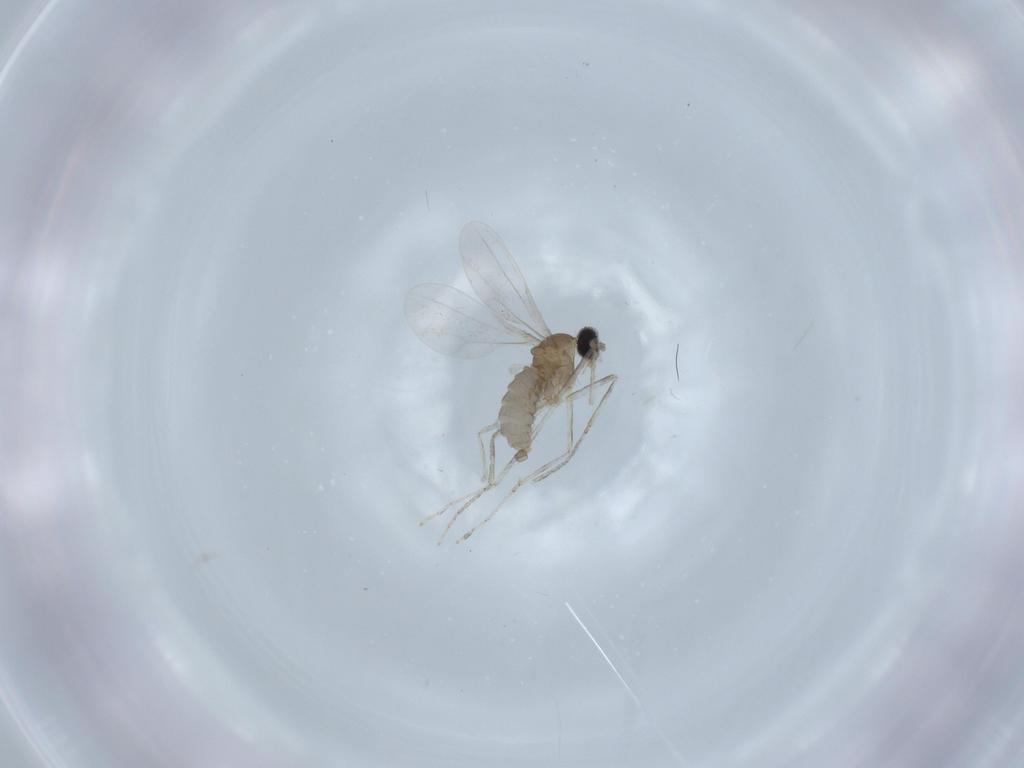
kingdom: Animalia
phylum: Arthropoda
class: Insecta
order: Diptera
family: Cecidomyiidae
